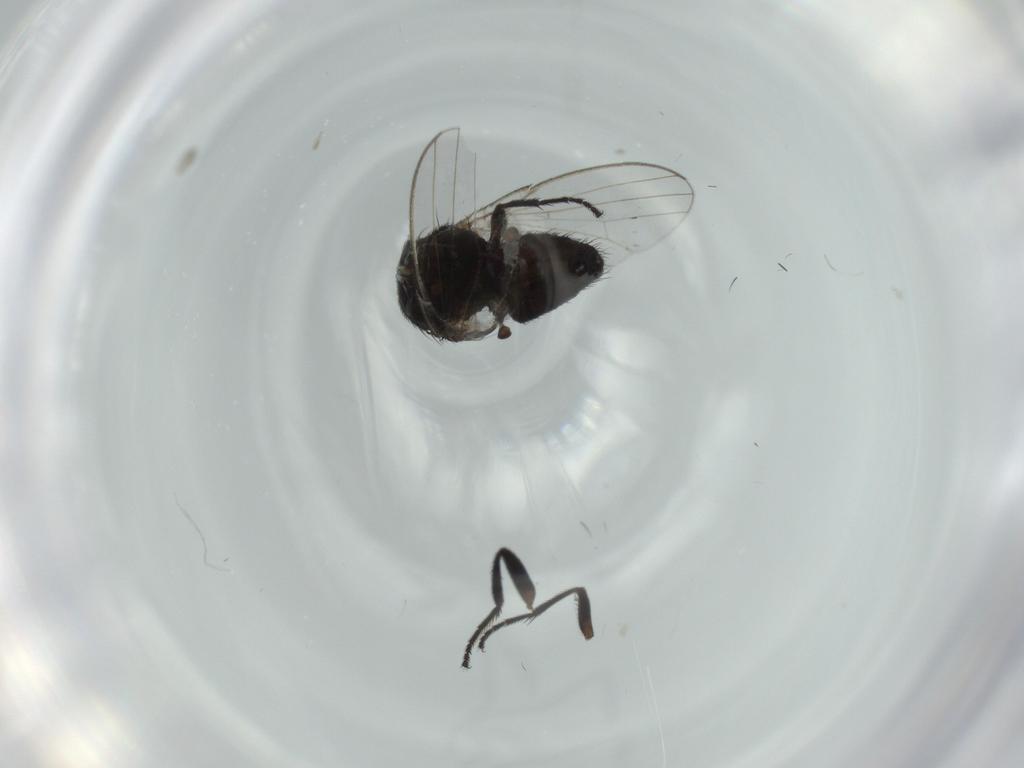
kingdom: Animalia
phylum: Arthropoda
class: Insecta
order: Diptera
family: Milichiidae
